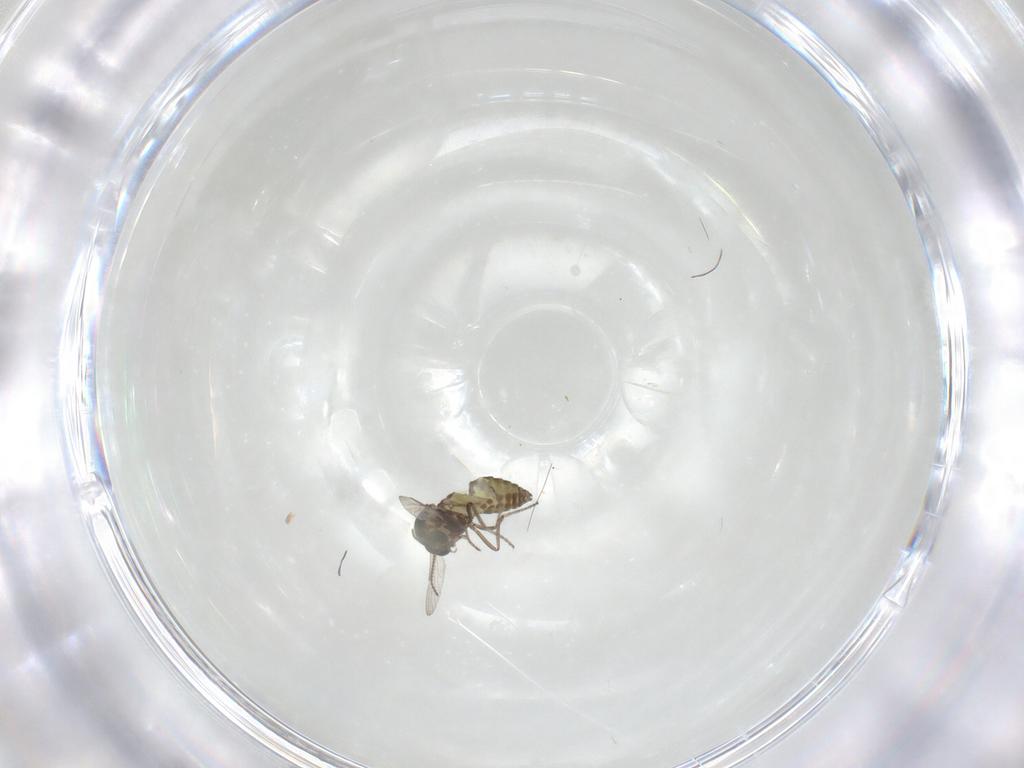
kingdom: Animalia
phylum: Arthropoda
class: Insecta
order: Diptera
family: Ceratopogonidae
